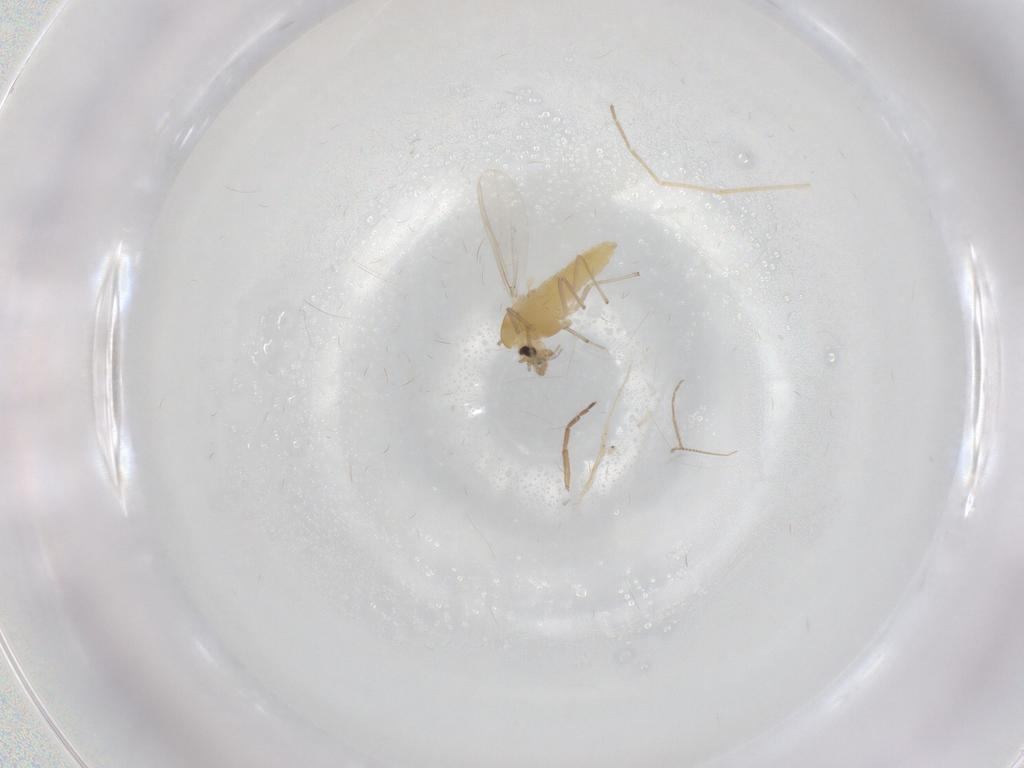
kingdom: Animalia
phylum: Arthropoda
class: Insecta
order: Diptera
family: Chironomidae
